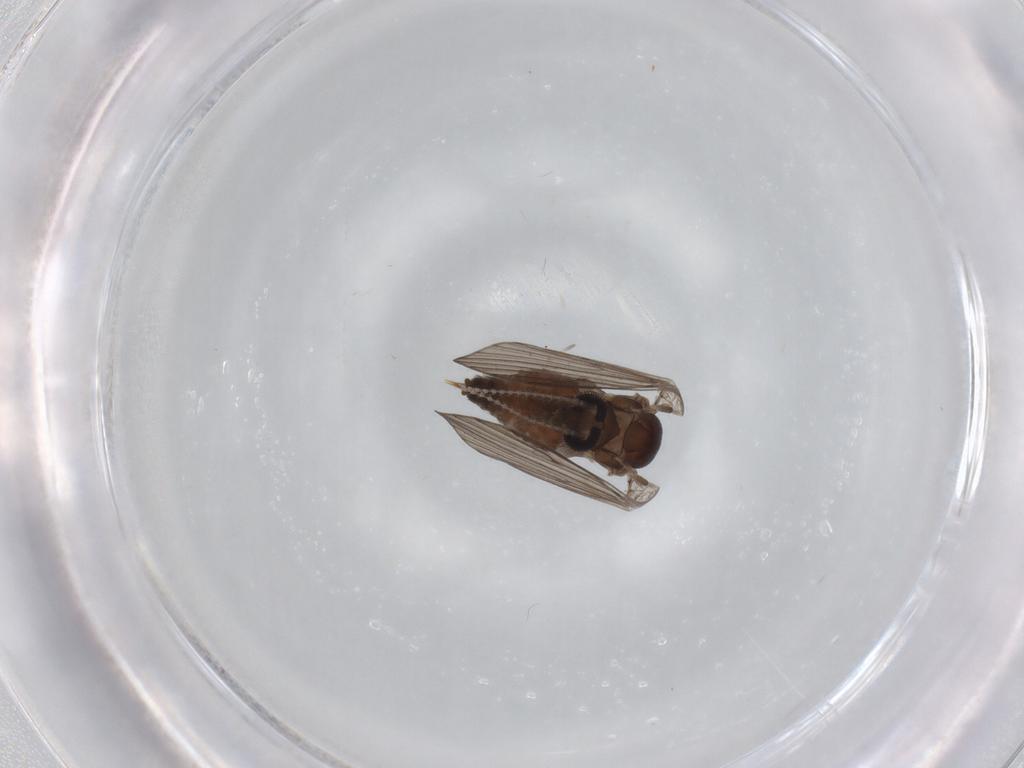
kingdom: Animalia
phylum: Arthropoda
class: Insecta
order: Diptera
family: Psychodidae
